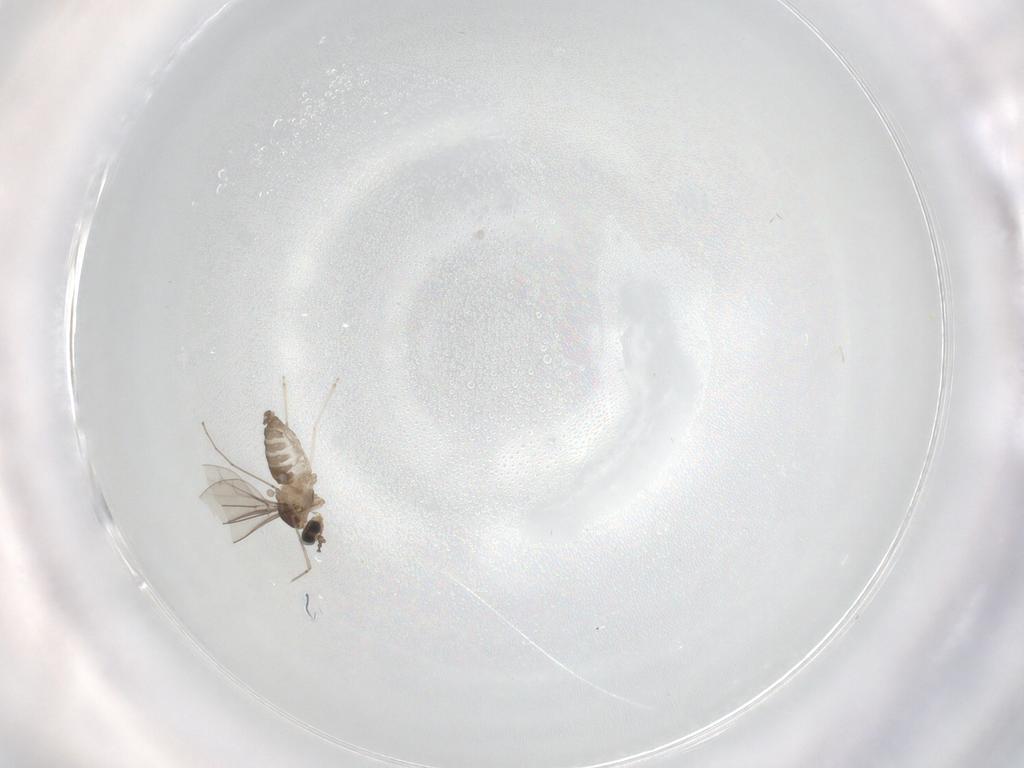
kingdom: Animalia
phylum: Arthropoda
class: Insecta
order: Diptera
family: Cecidomyiidae
